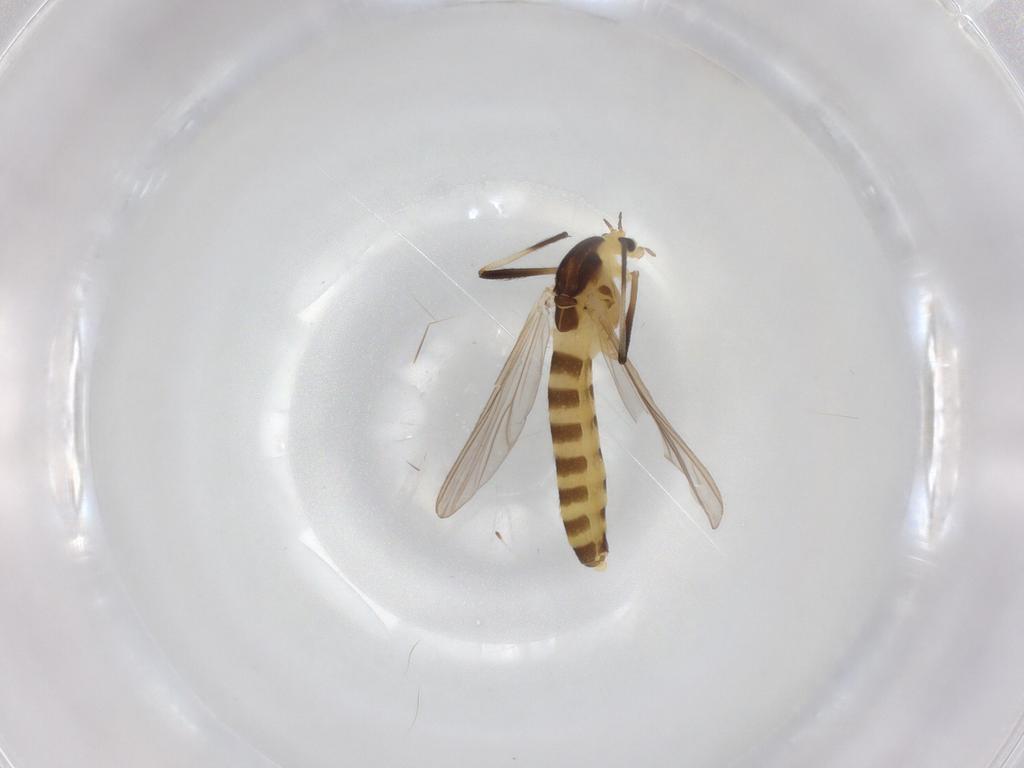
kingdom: Animalia
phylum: Arthropoda
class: Insecta
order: Diptera
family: Chironomidae
